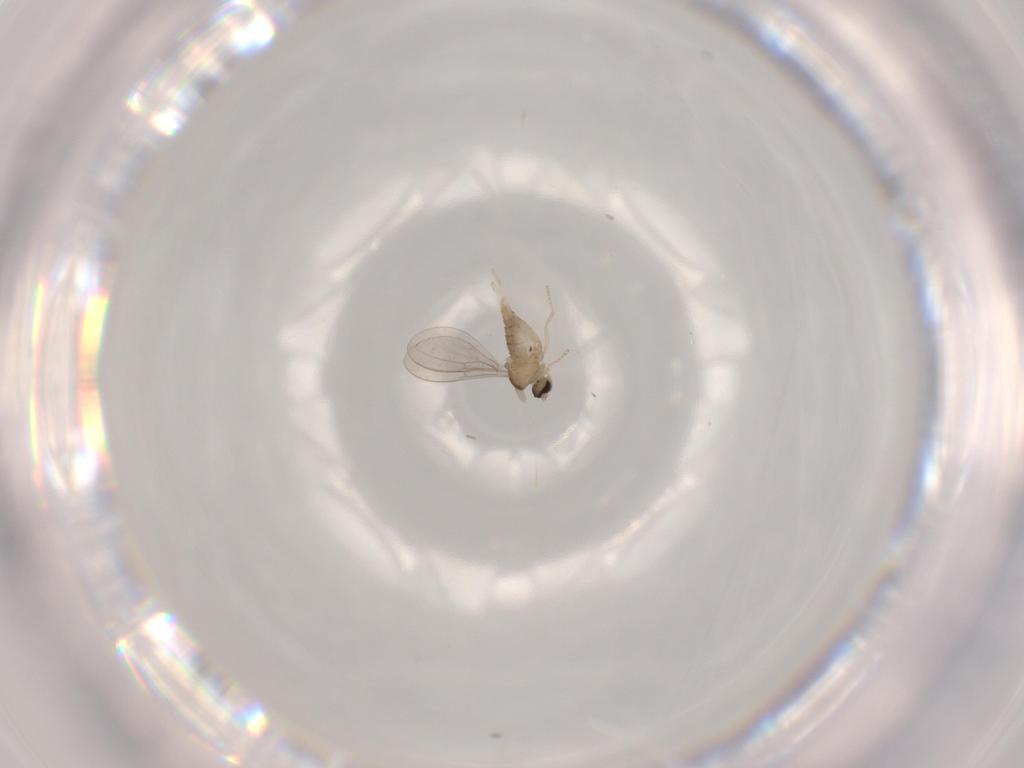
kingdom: Animalia
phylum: Arthropoda
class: Insecta
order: Diptera
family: Cecidomyiidae
